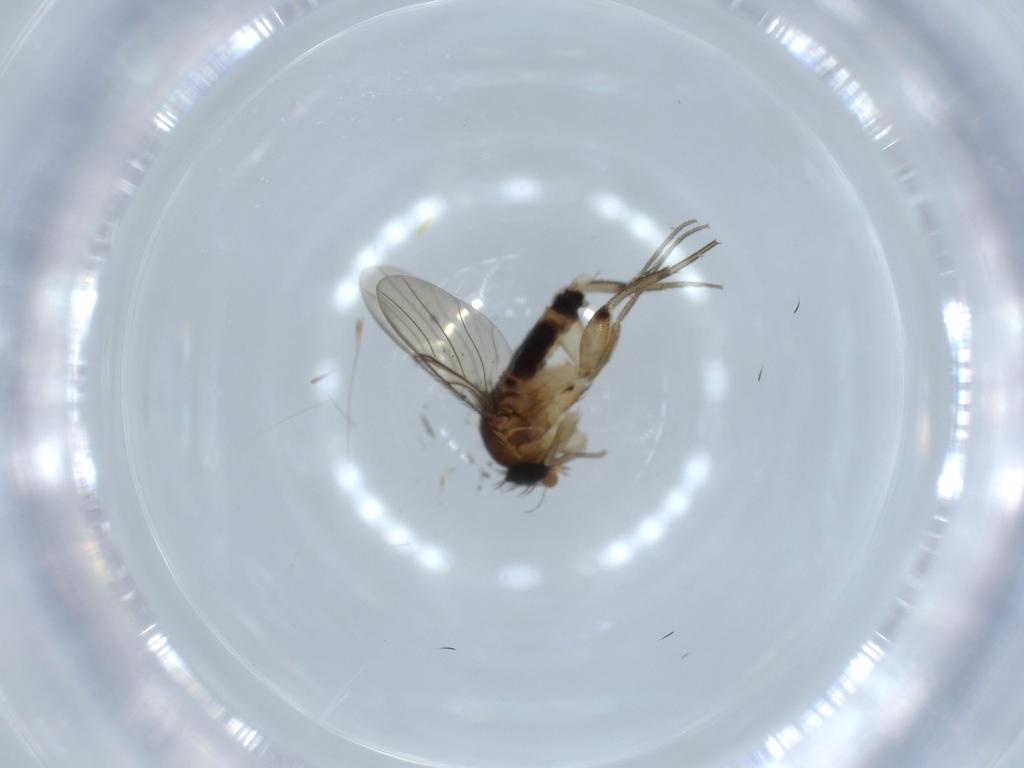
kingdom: Animalia
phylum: Arthropoda
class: Insecta
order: Diptera
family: Phoridae
